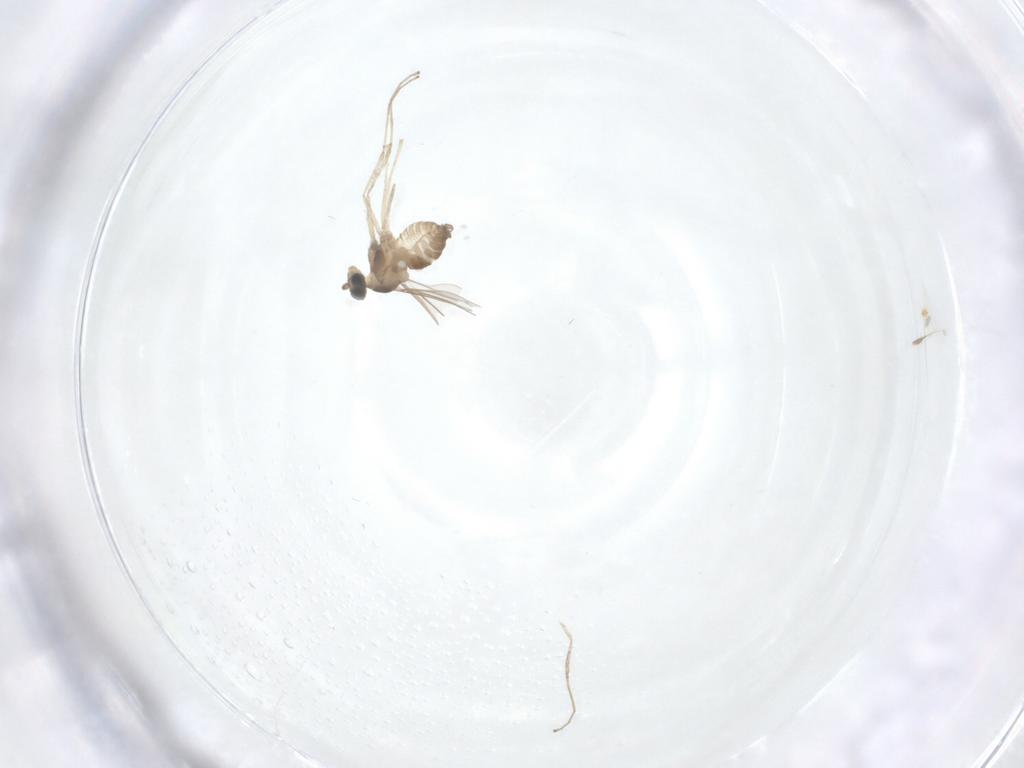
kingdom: Animalia
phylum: Arthropoda
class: Insecta
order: Diptera
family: Cecidomyiidae
